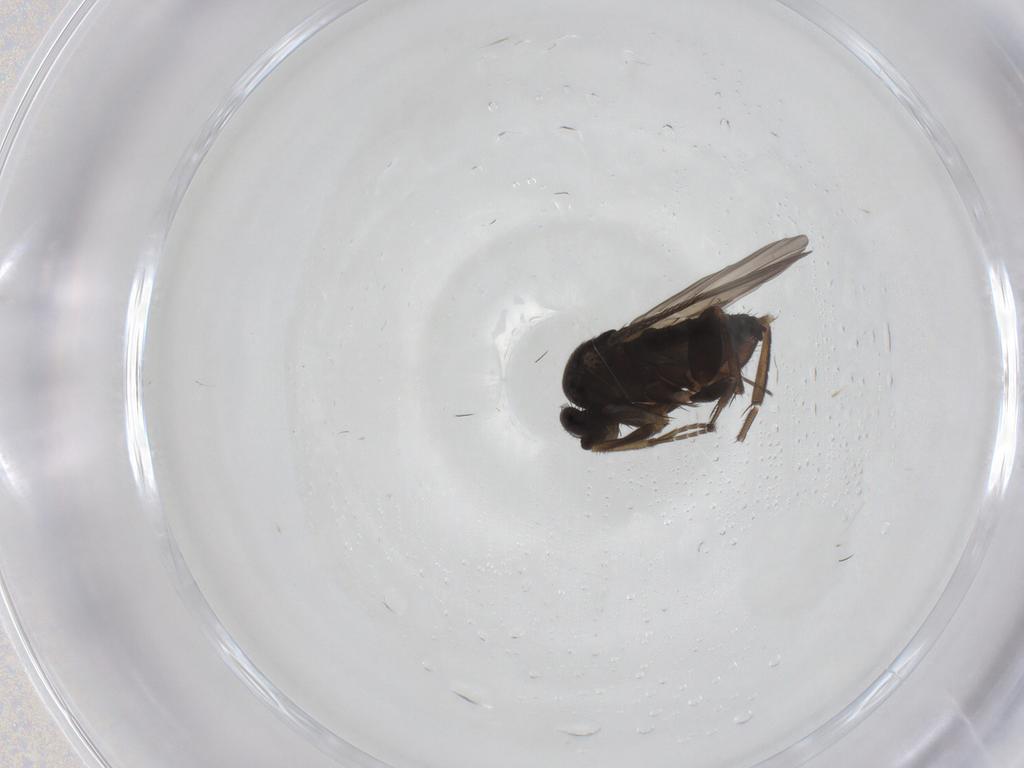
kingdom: Animalia
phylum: Arthropoda
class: Insecta
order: Diptera
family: Phoridae
